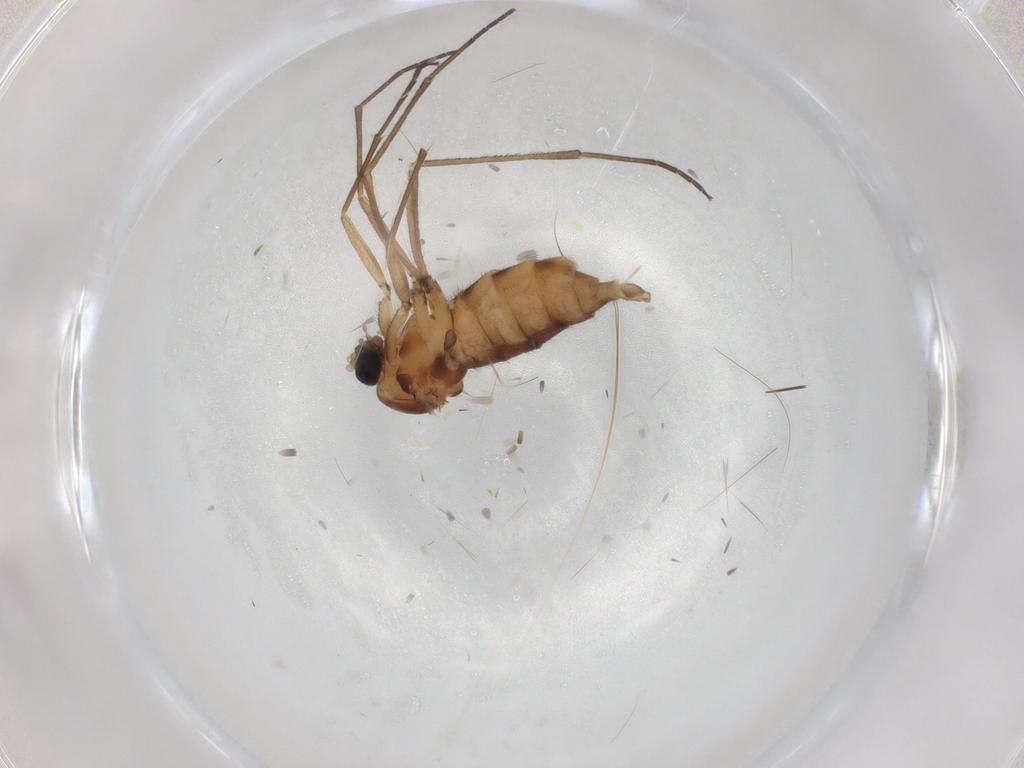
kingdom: Animalia
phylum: Arthropoda
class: Insecta
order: Diptera
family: Sciaridae
